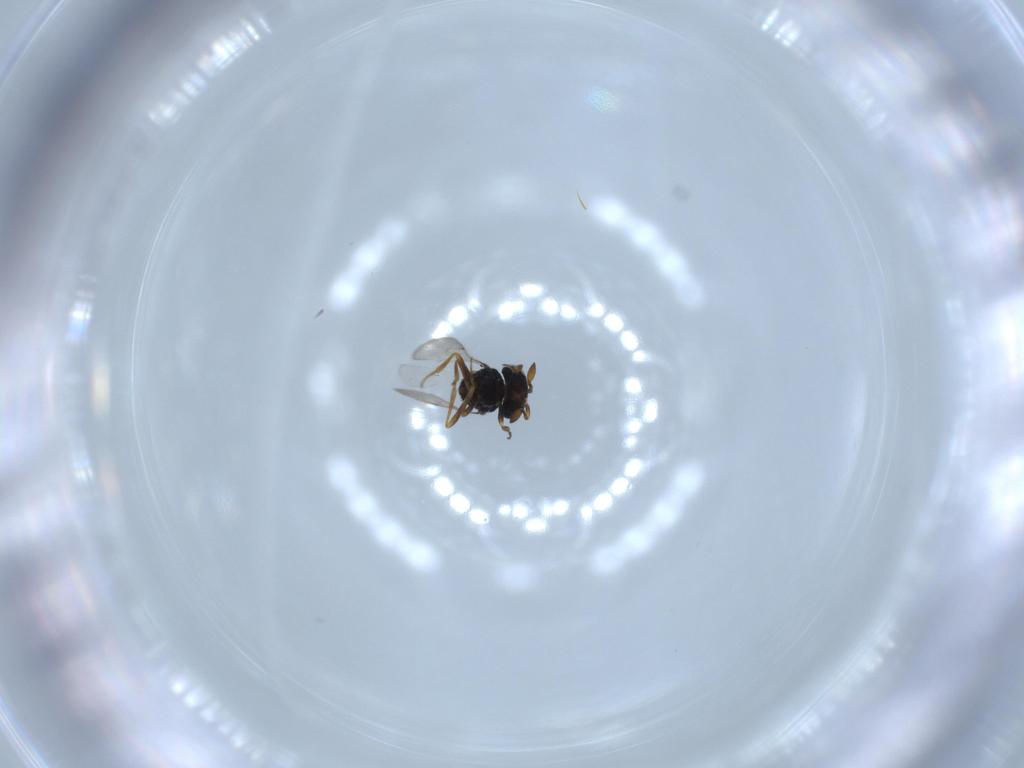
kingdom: Animalia
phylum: Arthropoda
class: Insecta
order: Hymenoptera
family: Scelionidae
